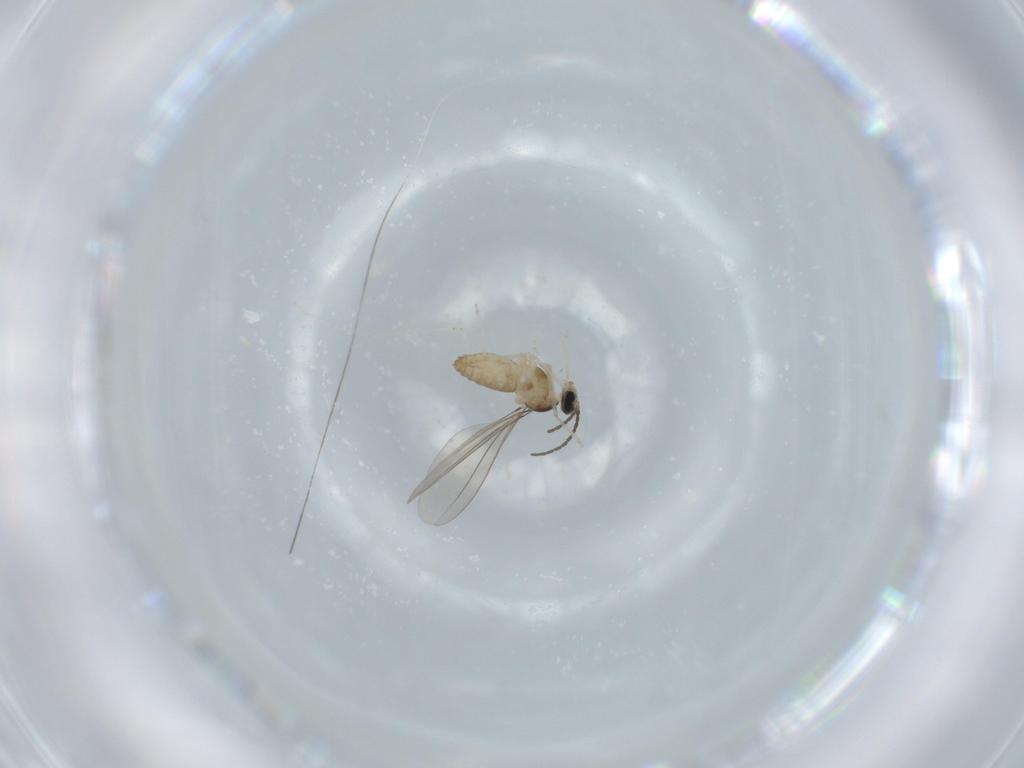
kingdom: Animalia
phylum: Arthropoda
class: Insecta
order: Diptera
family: Cecidomyiidae
